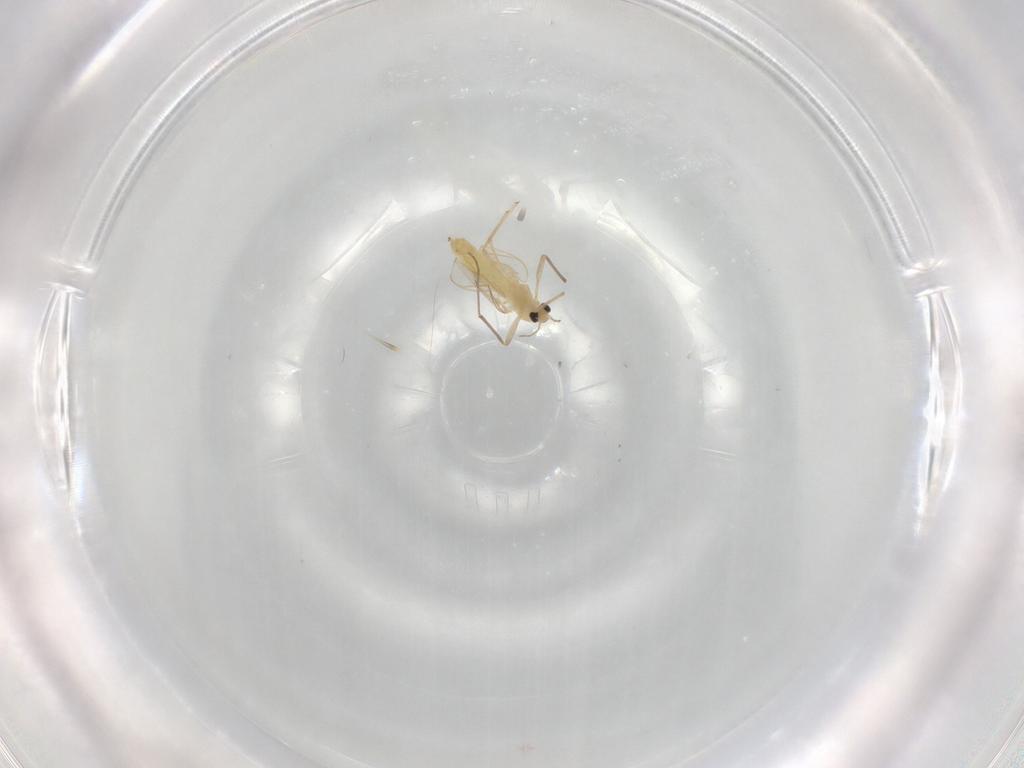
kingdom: Animalia
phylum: Arthropoda
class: Insecta
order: Diptera
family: Chironomidae
